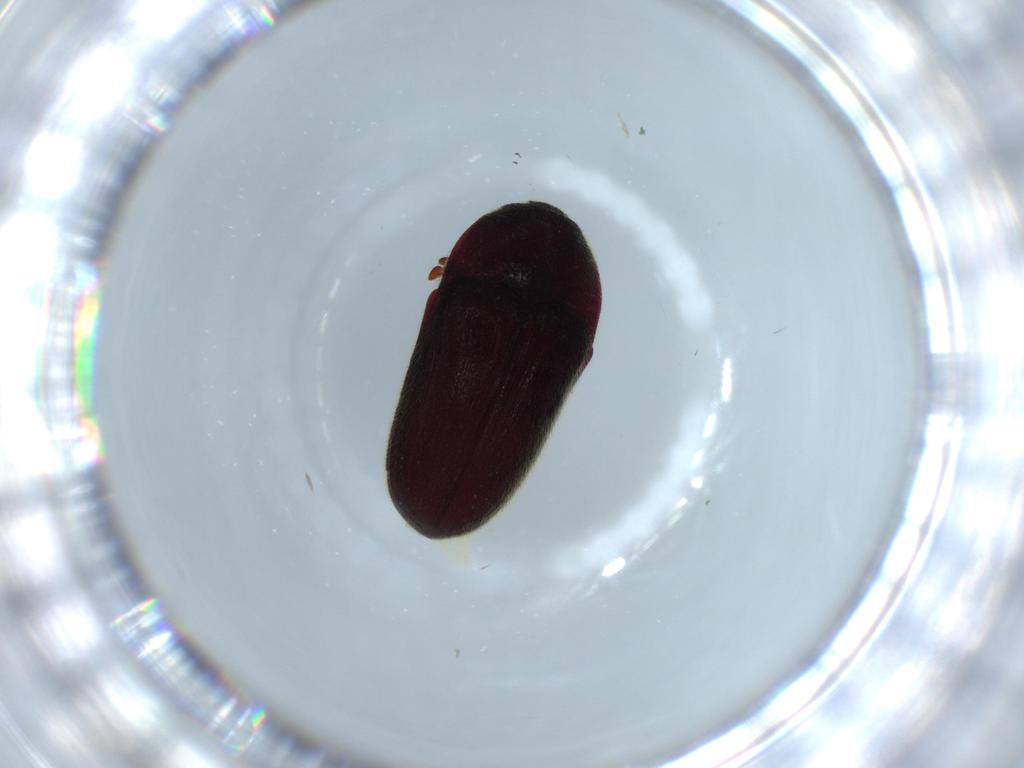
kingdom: Animalia
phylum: Arthropoda
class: Insecta
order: Coleoptera
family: Throscidae
